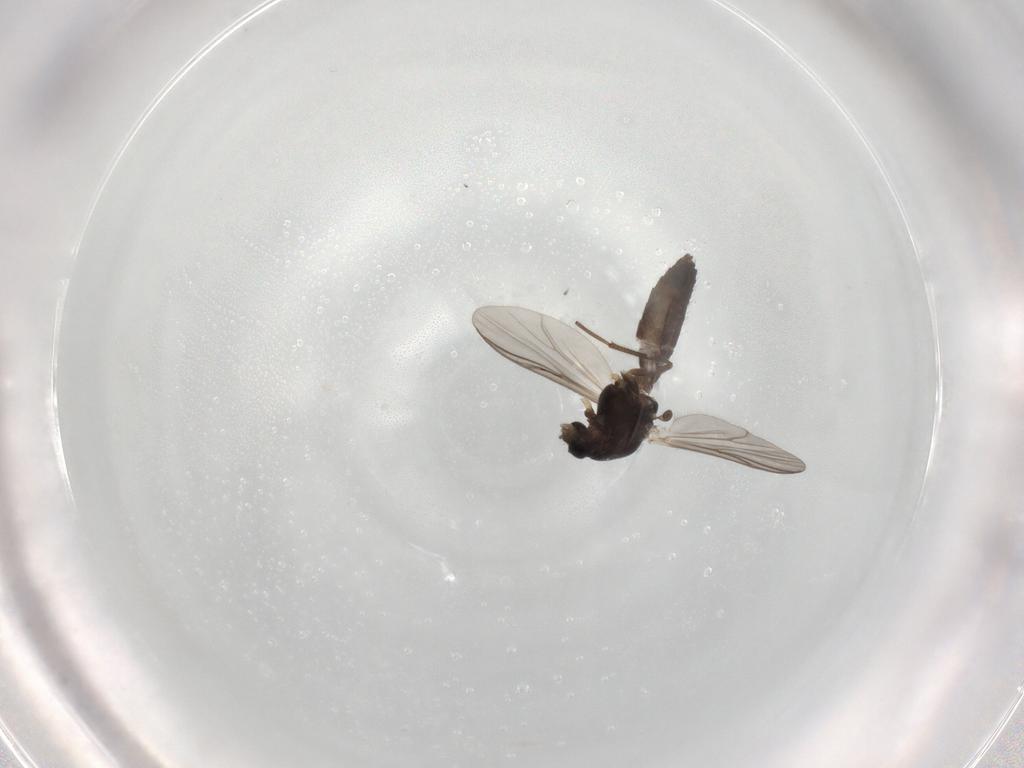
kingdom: Animalia
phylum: Arthropoda
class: Insecta
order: Diptera
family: Chironomidae
